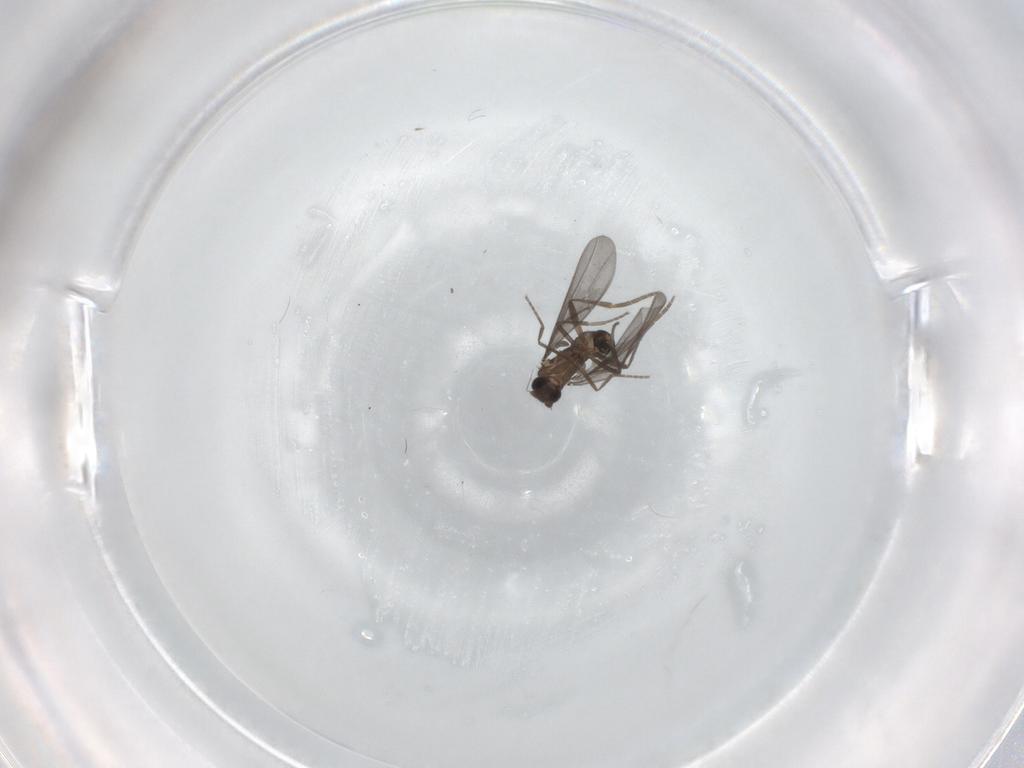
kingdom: Animalia
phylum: Arthropoda
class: Insecta
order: Diptera
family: Phoridae
